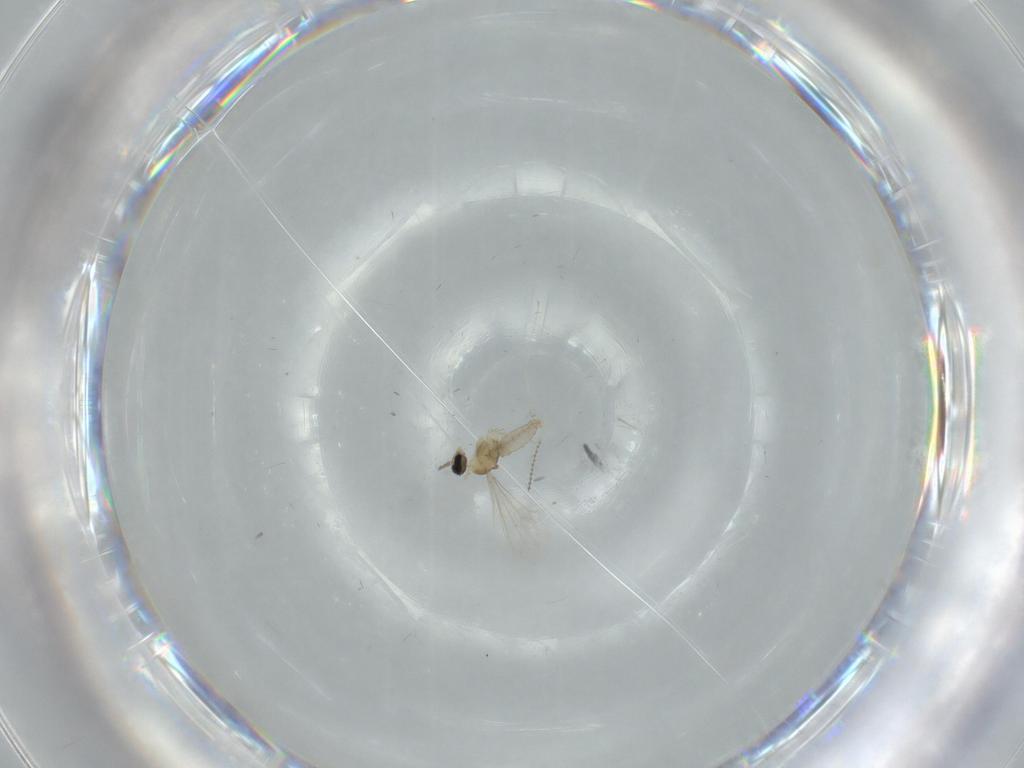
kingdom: Animalia
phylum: Arthropoda
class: Insecta
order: Diptera
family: Cecidomyiidae
